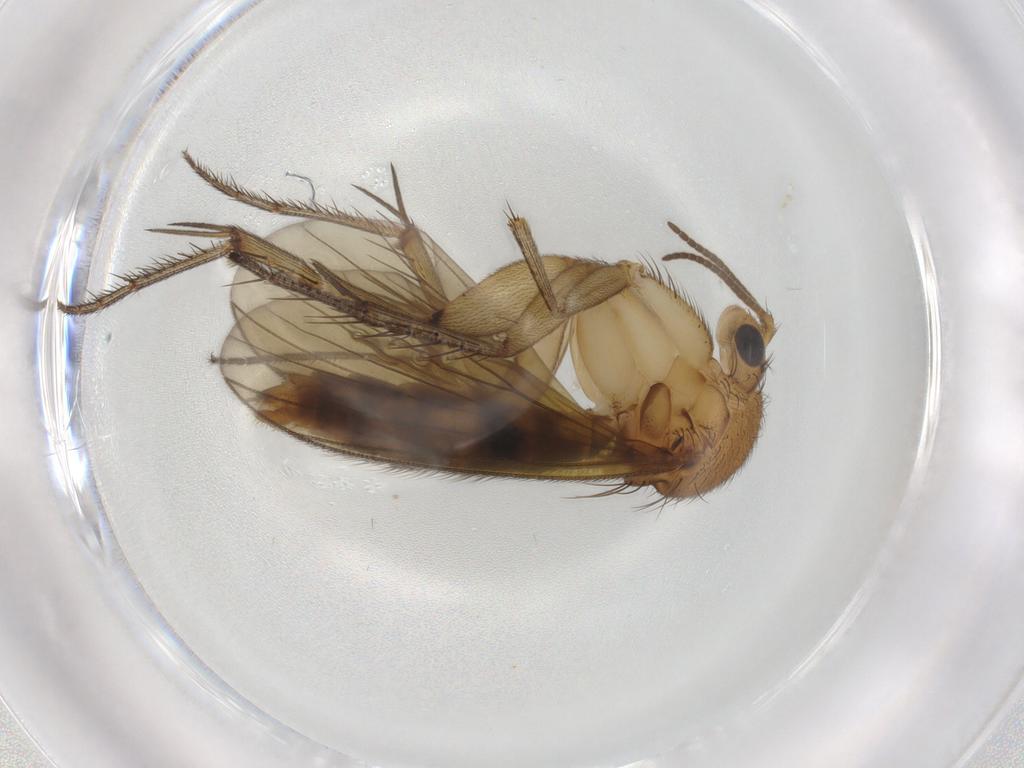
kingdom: Animalia
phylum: Arthropoda
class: Insecta
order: Diptera
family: Mycetophilidae
